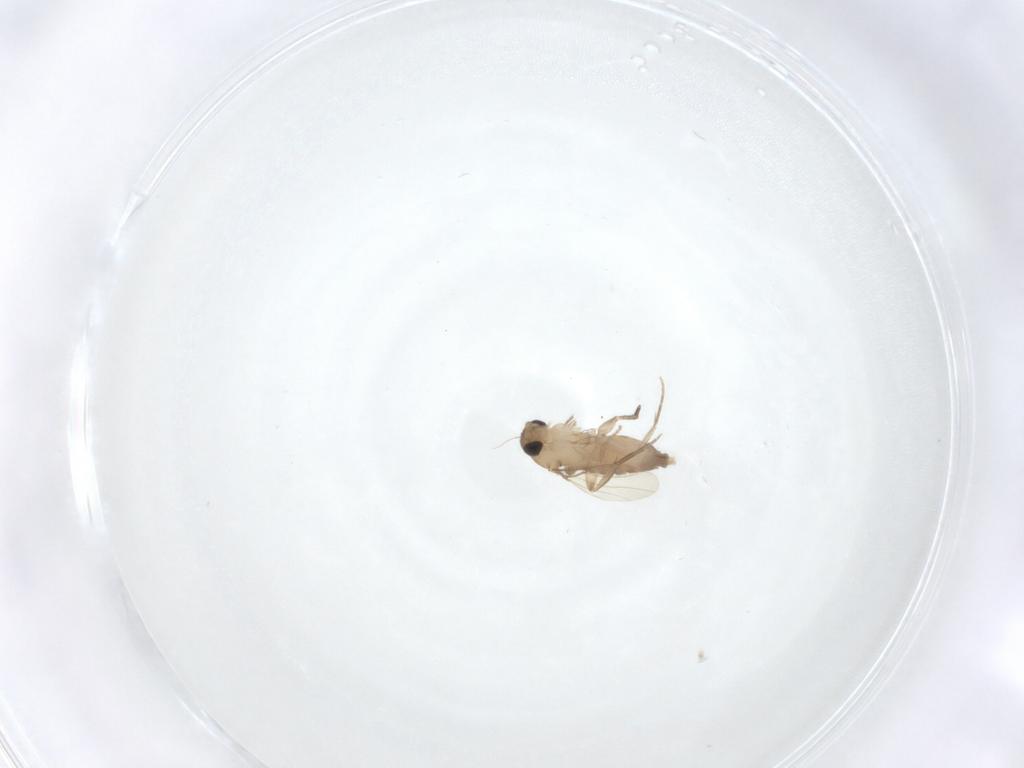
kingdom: Animalia
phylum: Arthropoda
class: Insecta
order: Diptera
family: Phoridae
